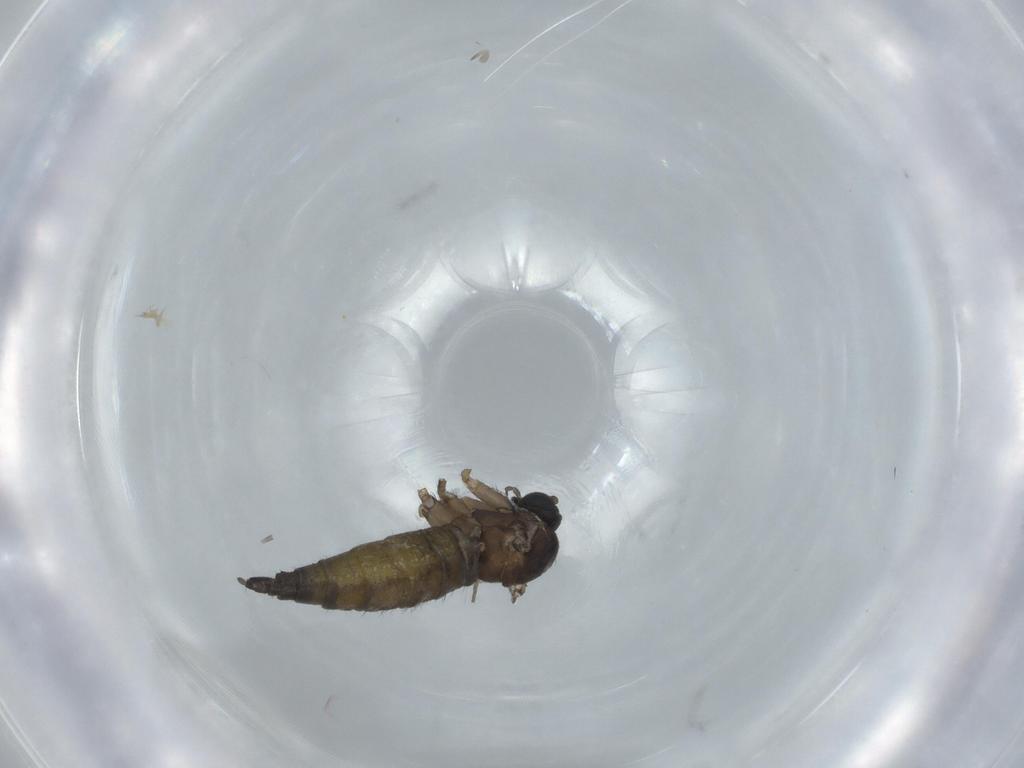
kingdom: Animalia
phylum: Arthropoda
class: Insecta
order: Diptera
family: Sciaridae
